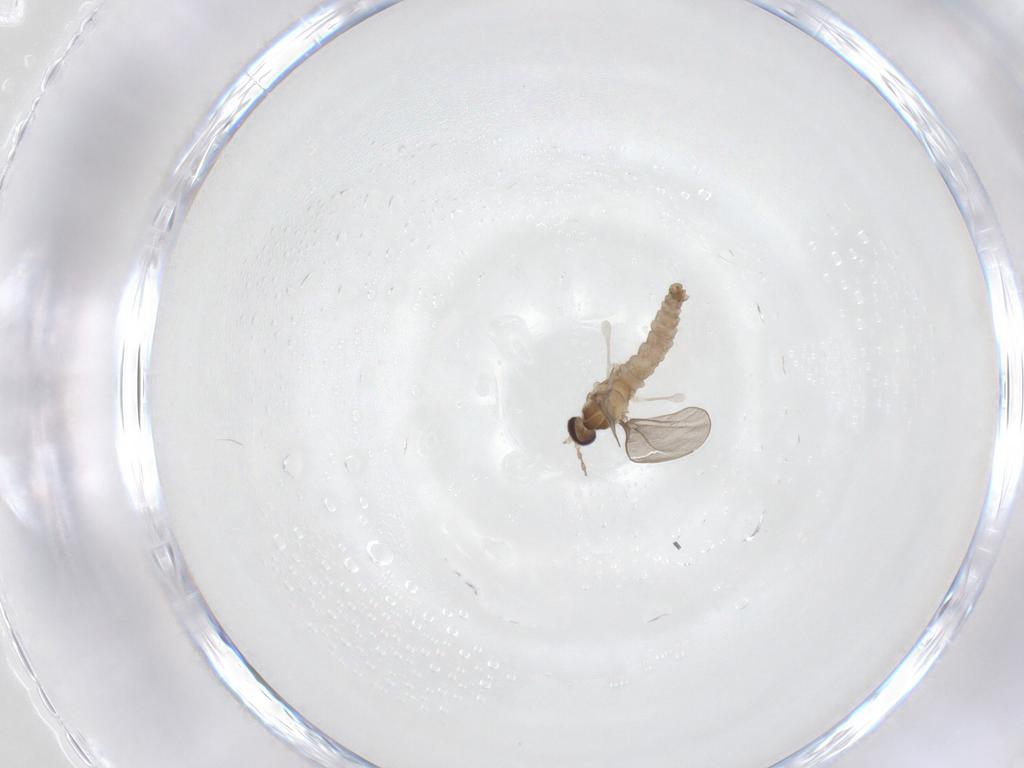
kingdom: Animalia
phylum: Arthropoda
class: Insecta
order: Diptera
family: Cecidomyiidae
